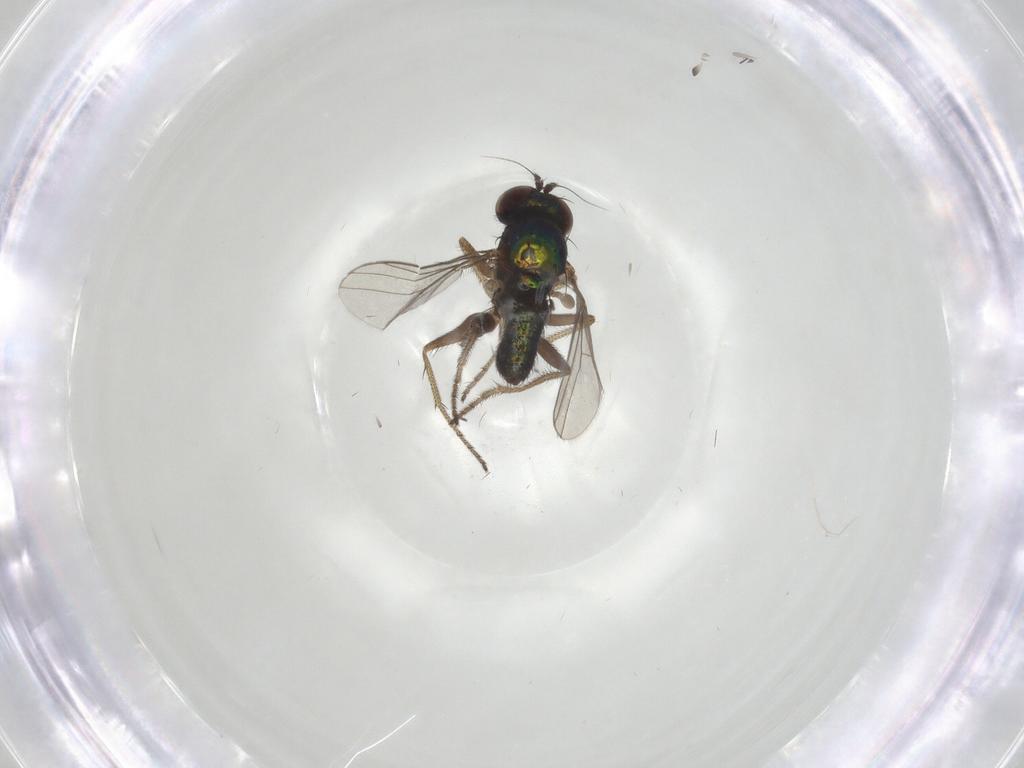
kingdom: Animalia
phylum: Arthropoda
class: Insecta
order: Diptera
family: Dolichopodidae
